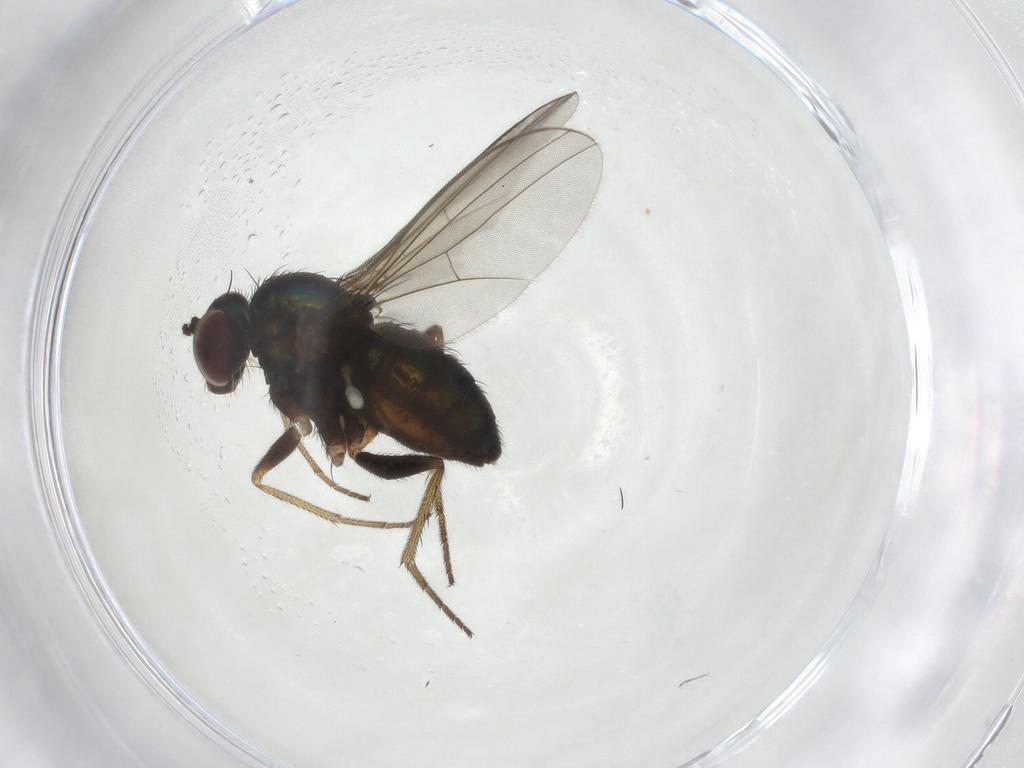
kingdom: Animalia
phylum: Arthropoda
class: Insecta
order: Diptera
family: Dolichopodidae
